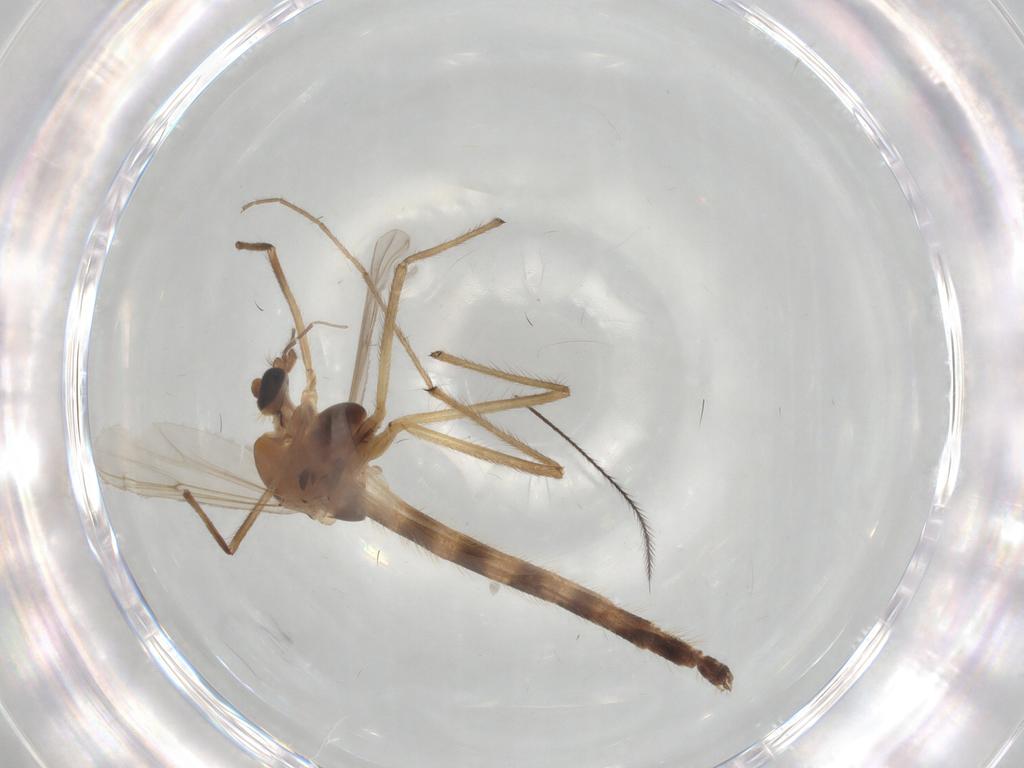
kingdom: Animalia
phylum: Arthropoda
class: Insecta
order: Diptera
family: Chironomidae
